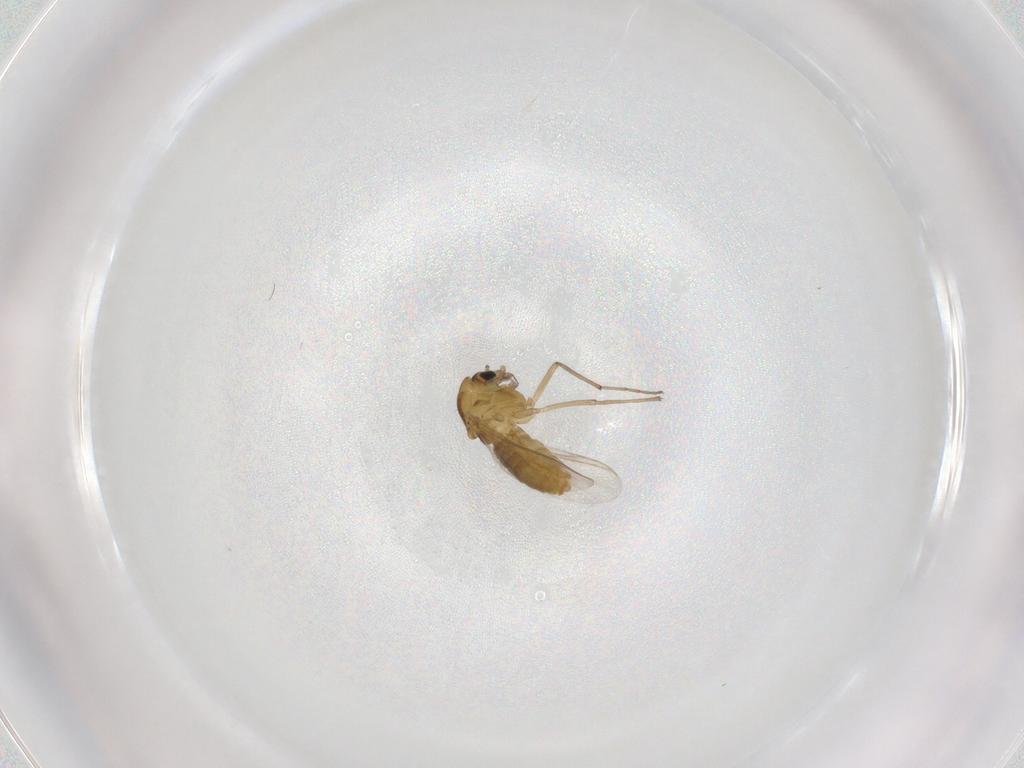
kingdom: Animalia
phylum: Arthropoda
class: Insecta
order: Diptera
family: Chironomidae
